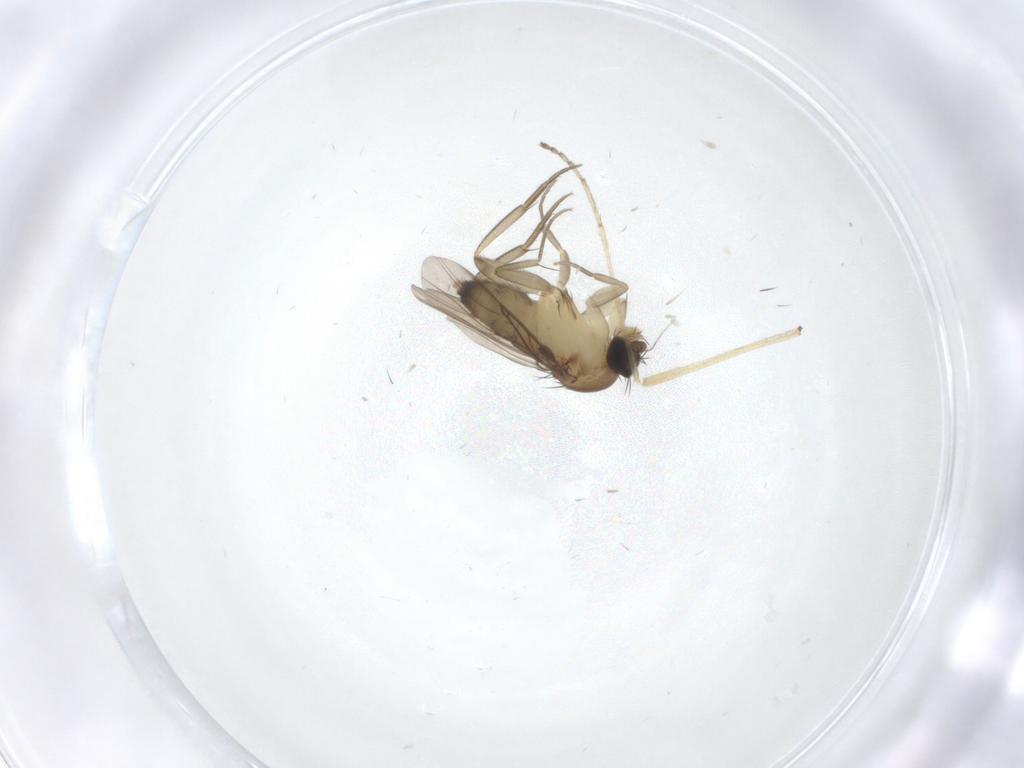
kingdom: Animalia
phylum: Arthropoda
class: Insecta
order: Diptera
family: Phoridae
